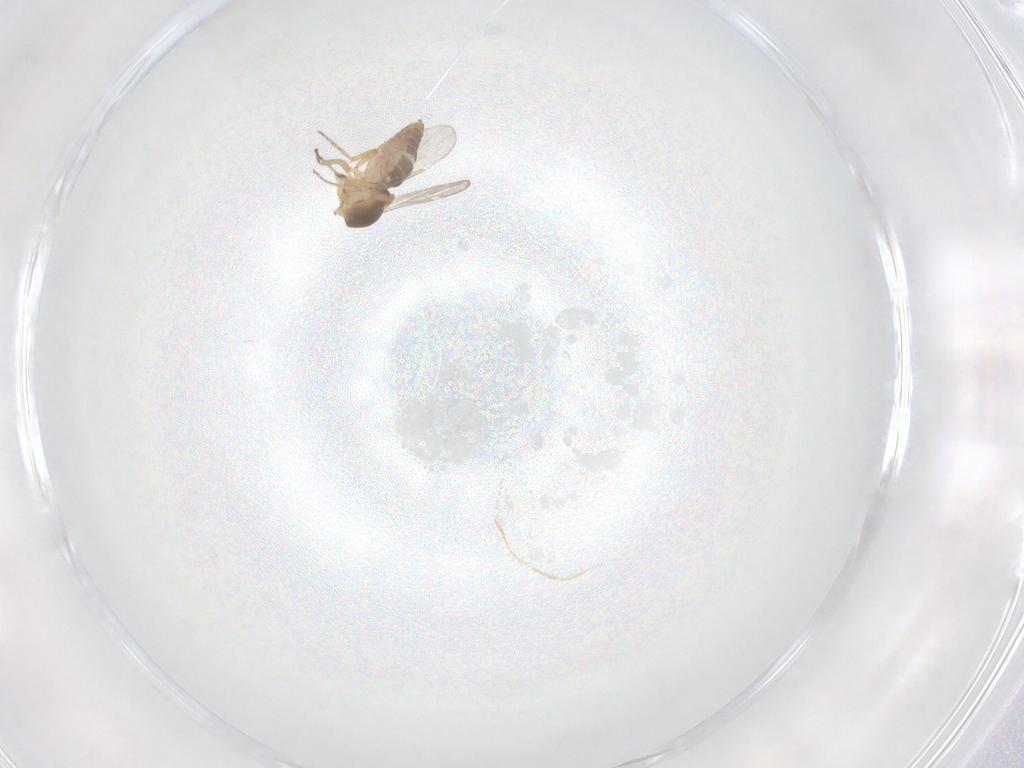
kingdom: Animalia
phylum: Arthropoda
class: Insecta
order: Diptera
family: Ceratopogonidae
